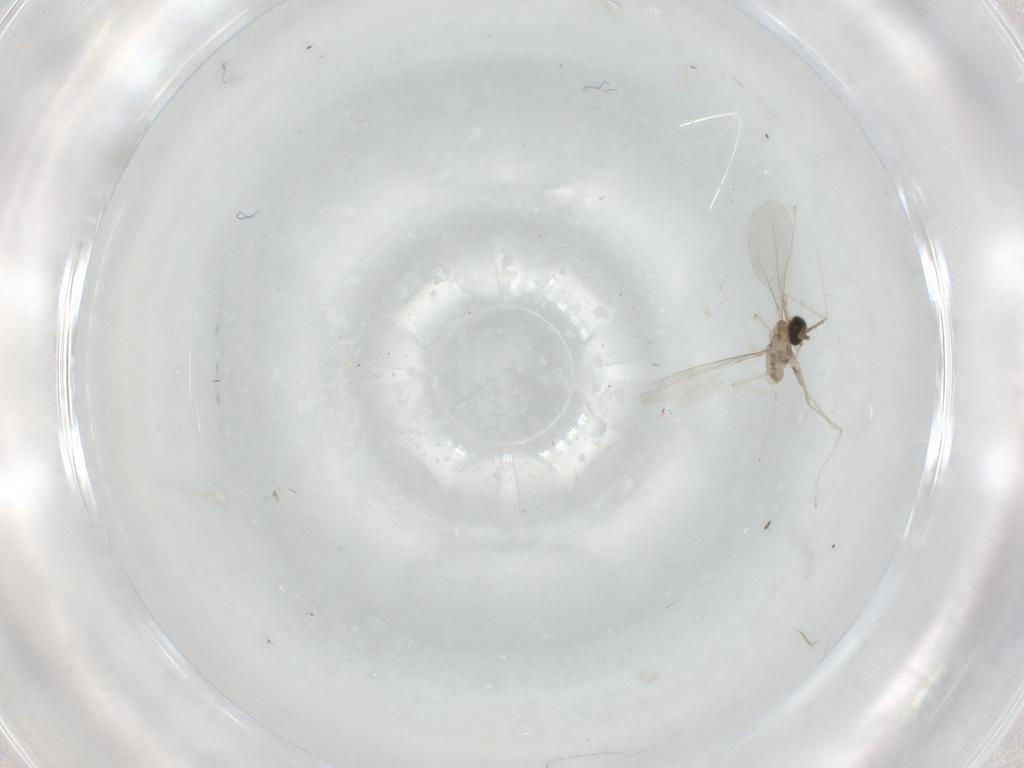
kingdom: Animalia
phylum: Arthropoda
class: Insecta
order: Diptera
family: Cecidomyiidae
